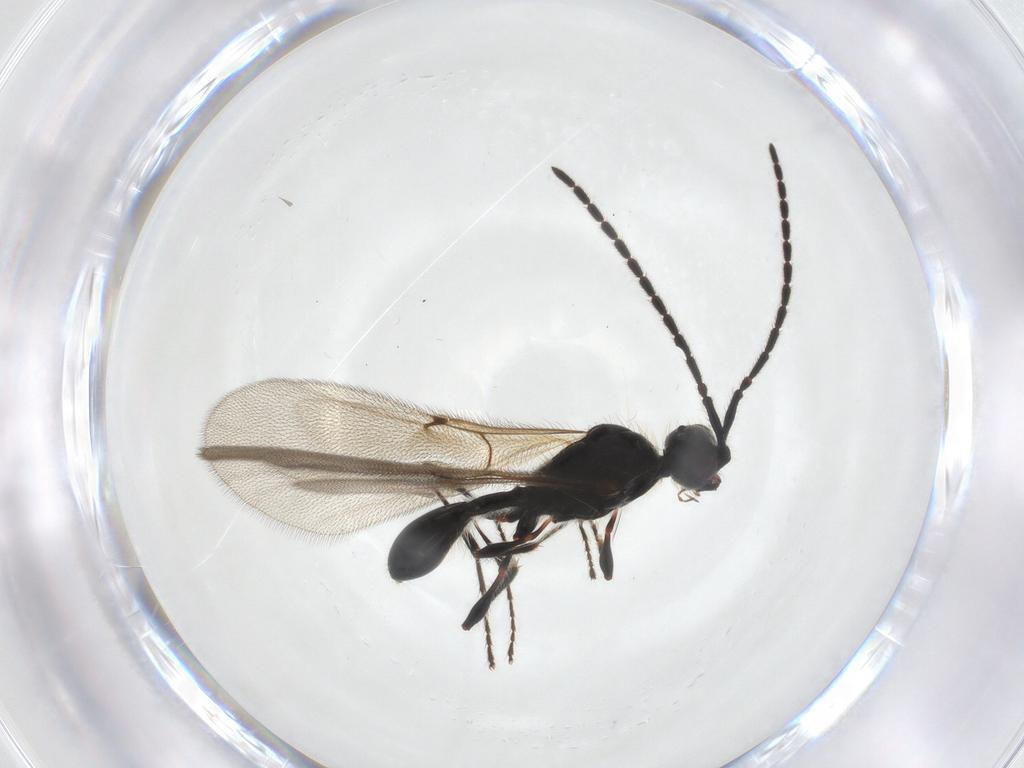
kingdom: Animalia
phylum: Arthropoda
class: Insecta
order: Hymenoptera
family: Diapriidae
